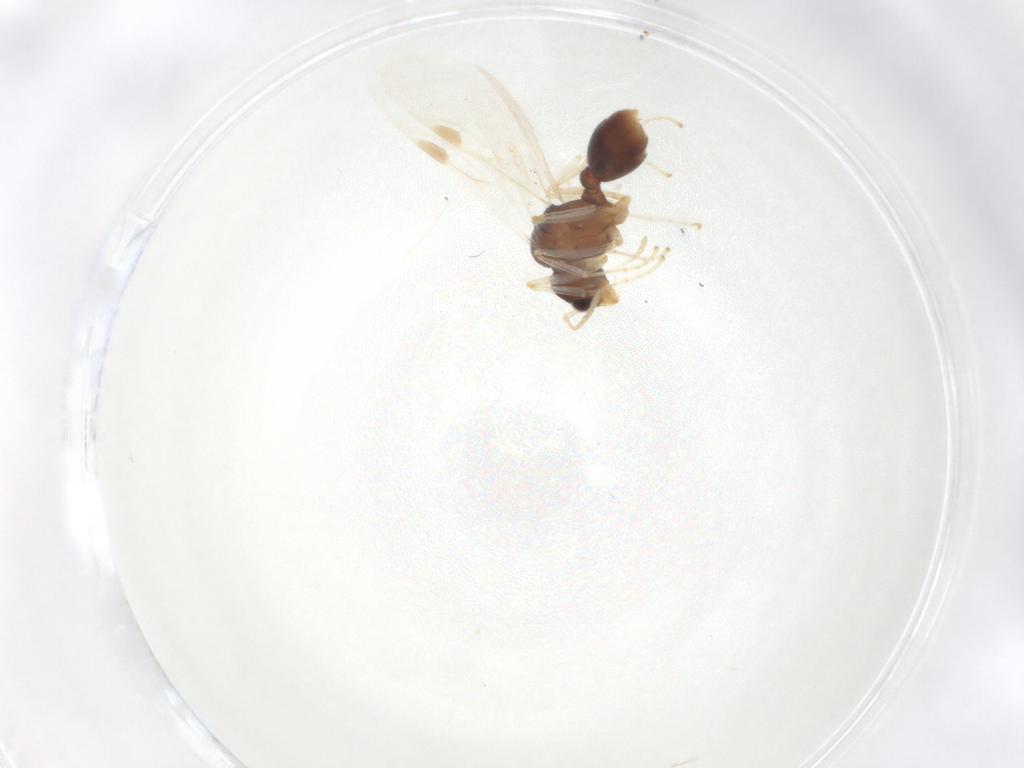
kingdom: Animalia
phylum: Arthropoda
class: Insecta
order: Hymenoptera
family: Formicidae
